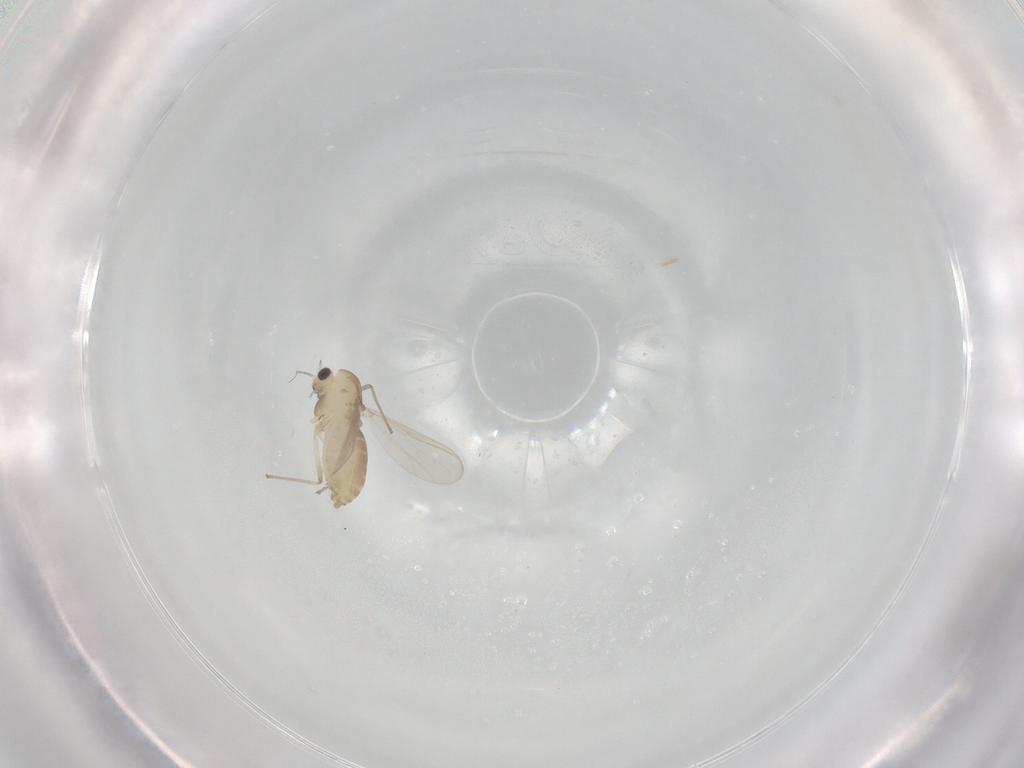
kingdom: Animalia
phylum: Arthropoda
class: Insecta
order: Diptera
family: Chironomidae
